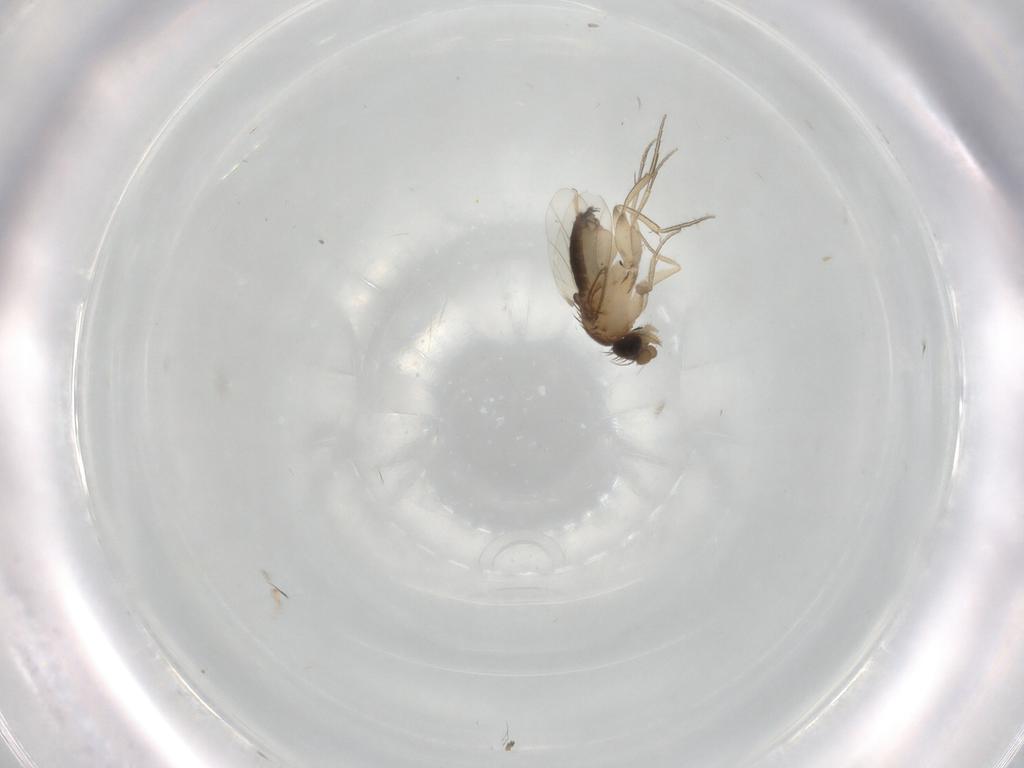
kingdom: Animalia
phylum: Arthropoda
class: Insecta
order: Diptera
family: Phoridae
